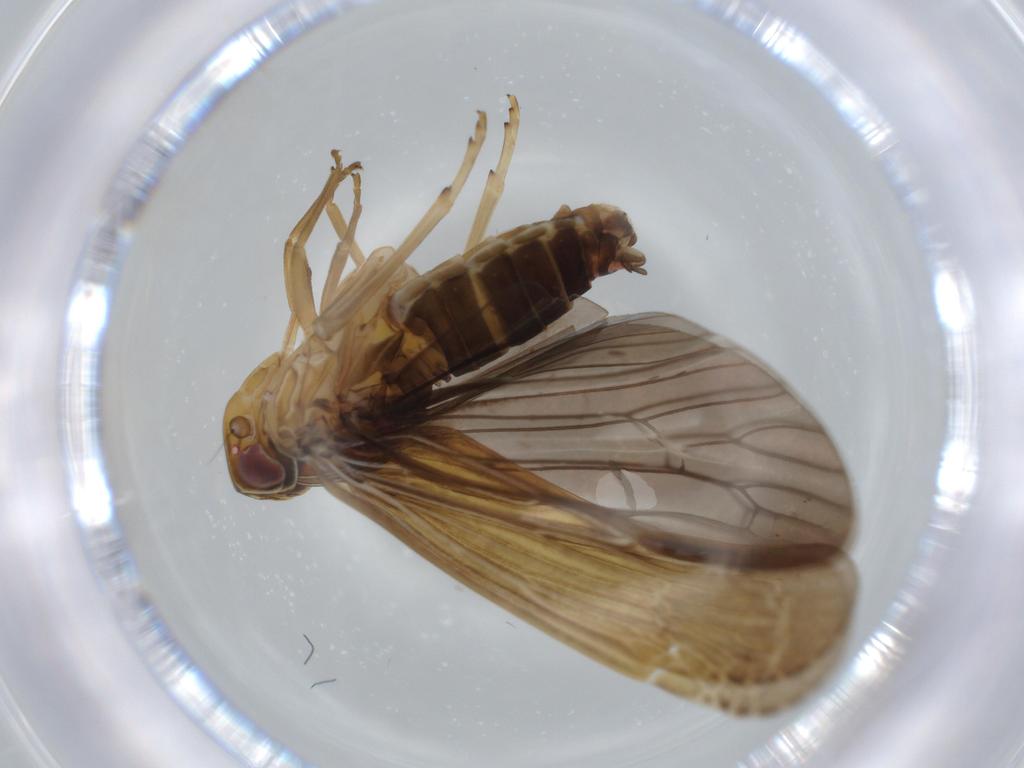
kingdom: Animalia
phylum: Arthropoda
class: Insecta
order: Hemiptera
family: Achilidae
